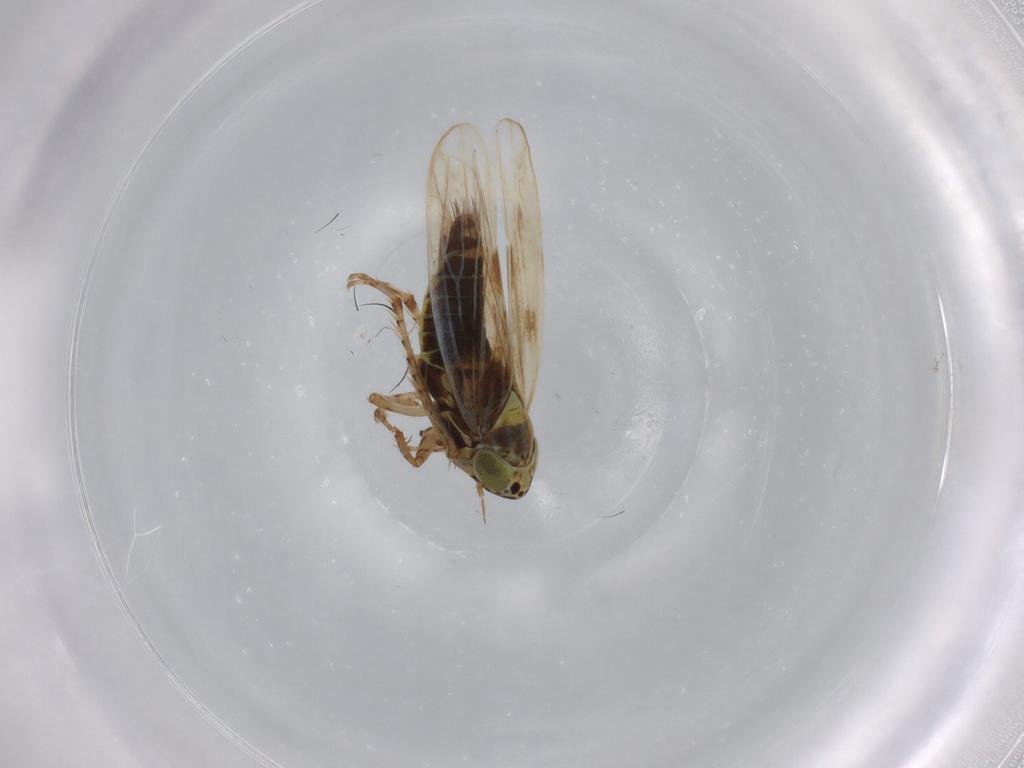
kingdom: Animalia
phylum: Arthropoda
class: Insecta
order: Hemiptera
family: Cicadellidae
